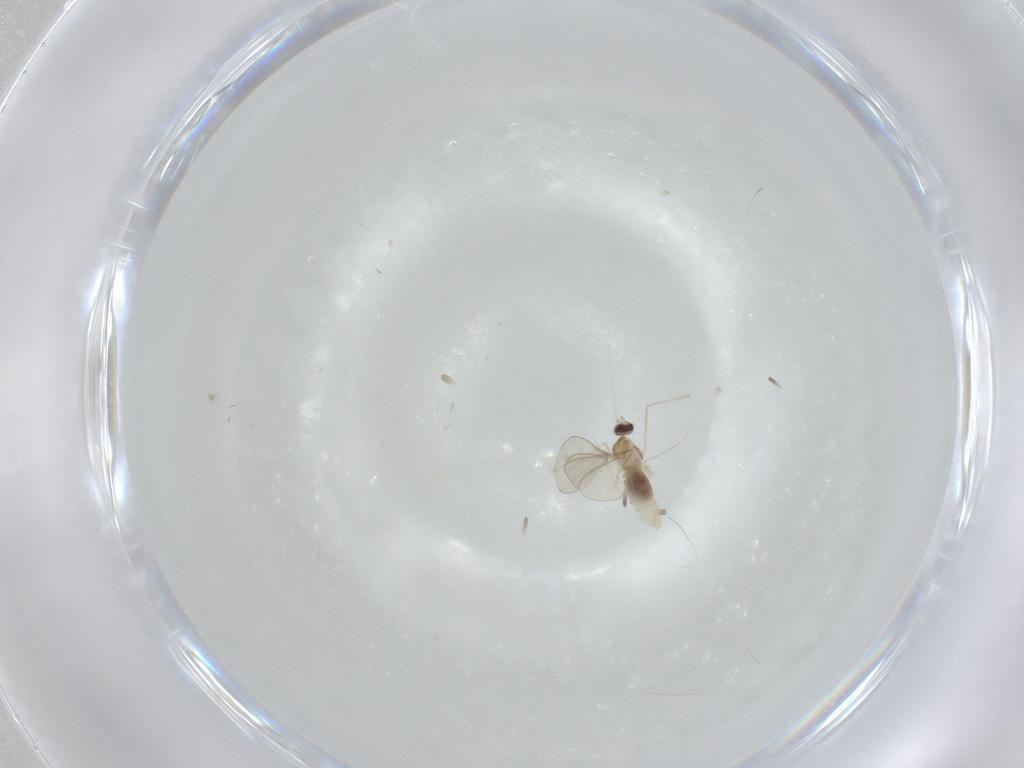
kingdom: Animalia
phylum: Arthropoda
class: Insecta
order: Diptera
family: Cecidomyiidae
